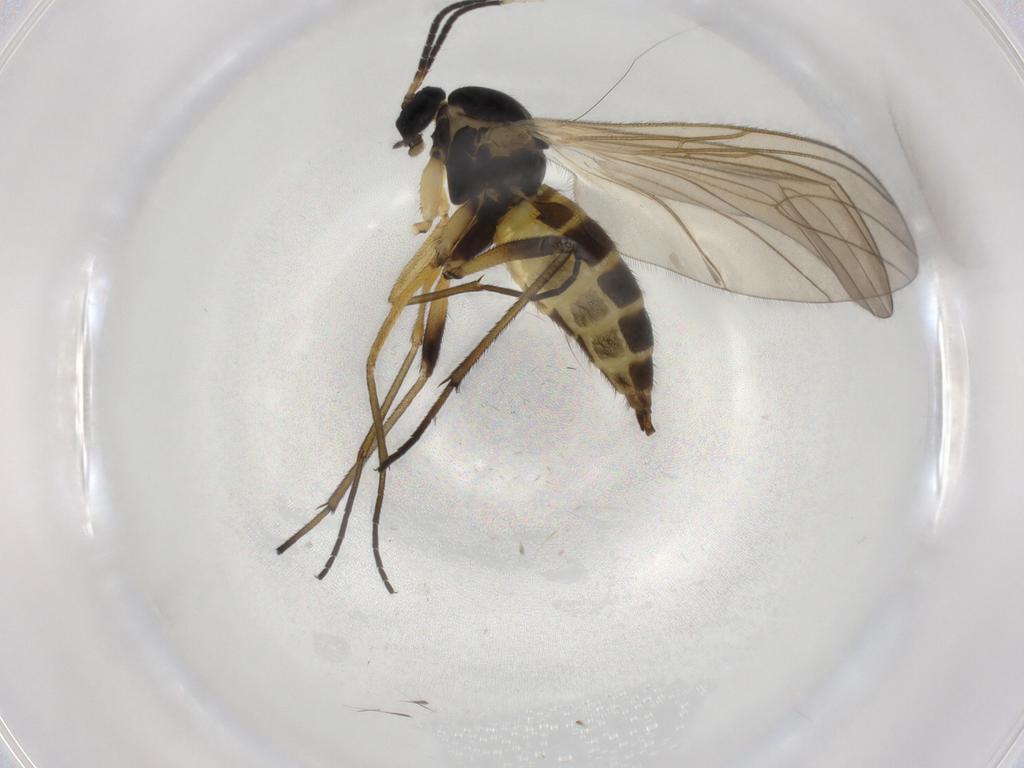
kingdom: Animalia
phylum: Arthropoda
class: Insecta
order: Diptera
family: Sciaridae
